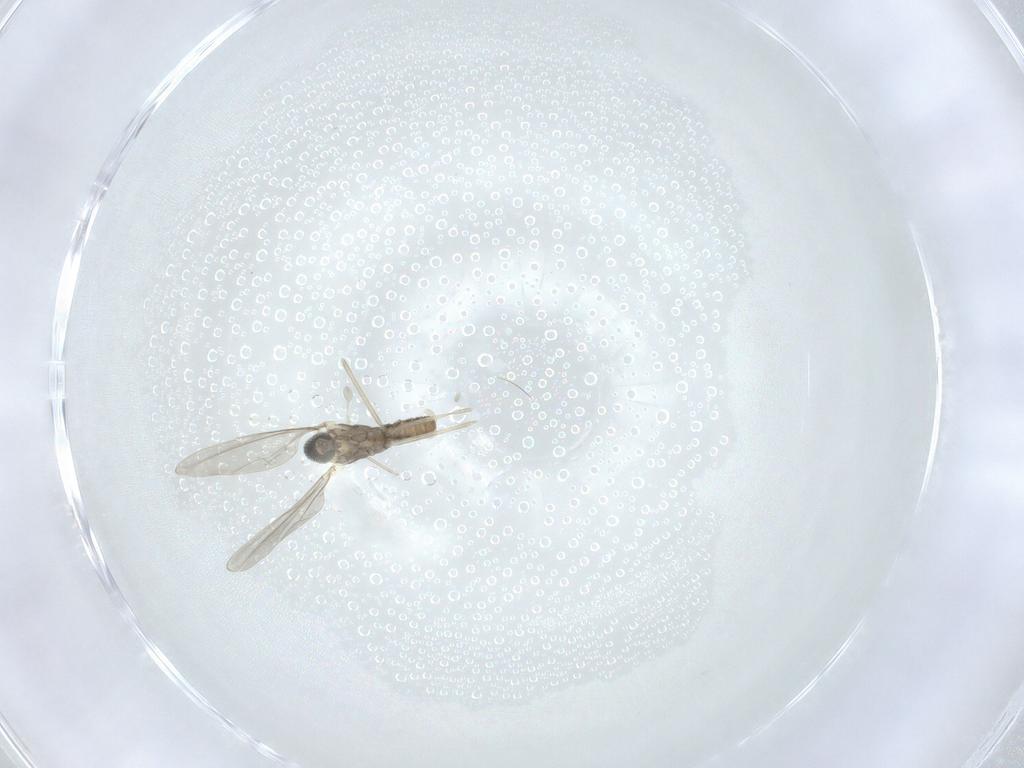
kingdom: Animalia
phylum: Arthropoda
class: Insecta
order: Diptera
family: Cecidomyiidae
